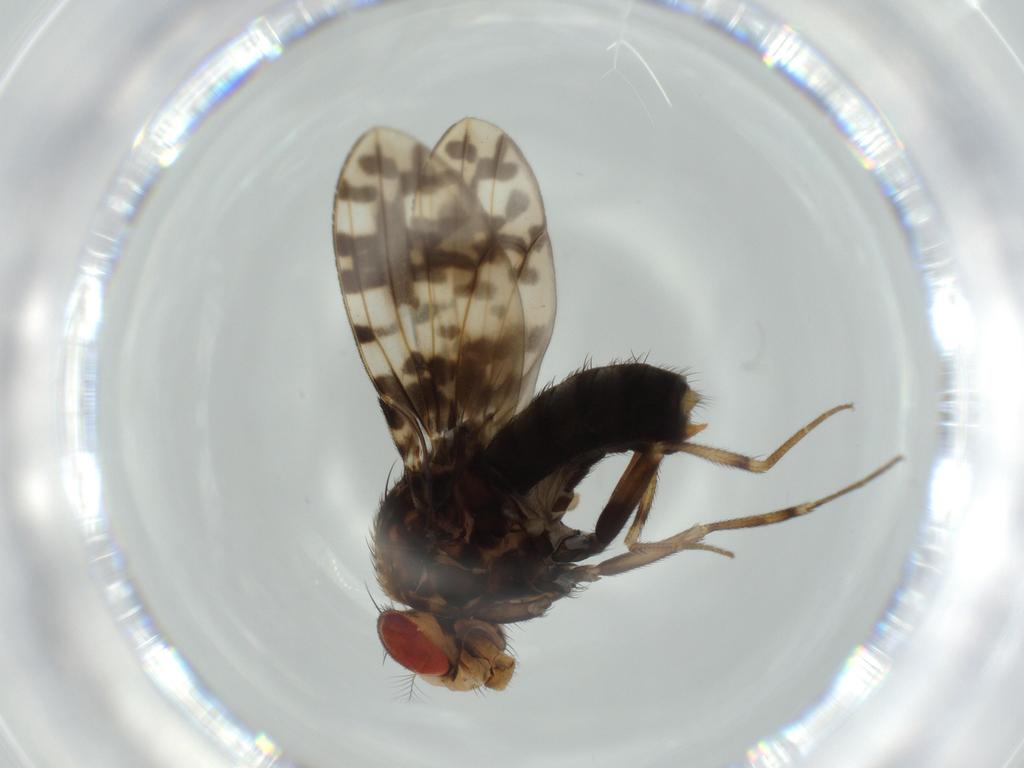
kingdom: Animalia
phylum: Arthropoda
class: Insecta
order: Diptera
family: Drosophilidae
